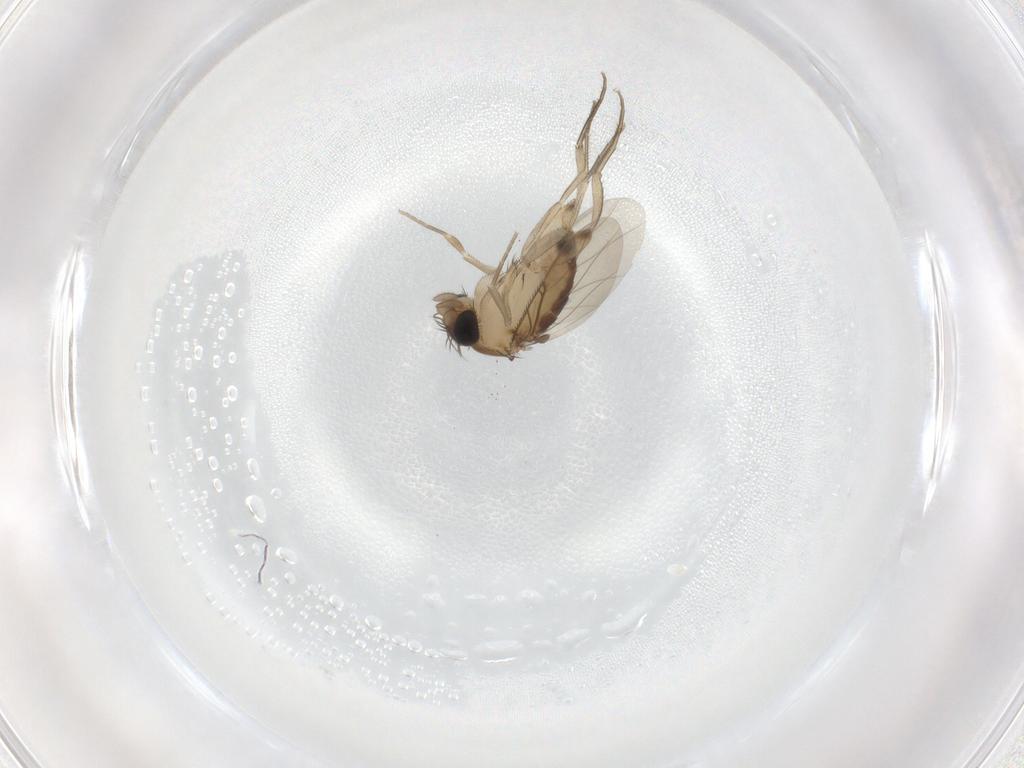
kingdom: Animalia
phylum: Arthropoda
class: Insecta
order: Diptera
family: Phoridae
